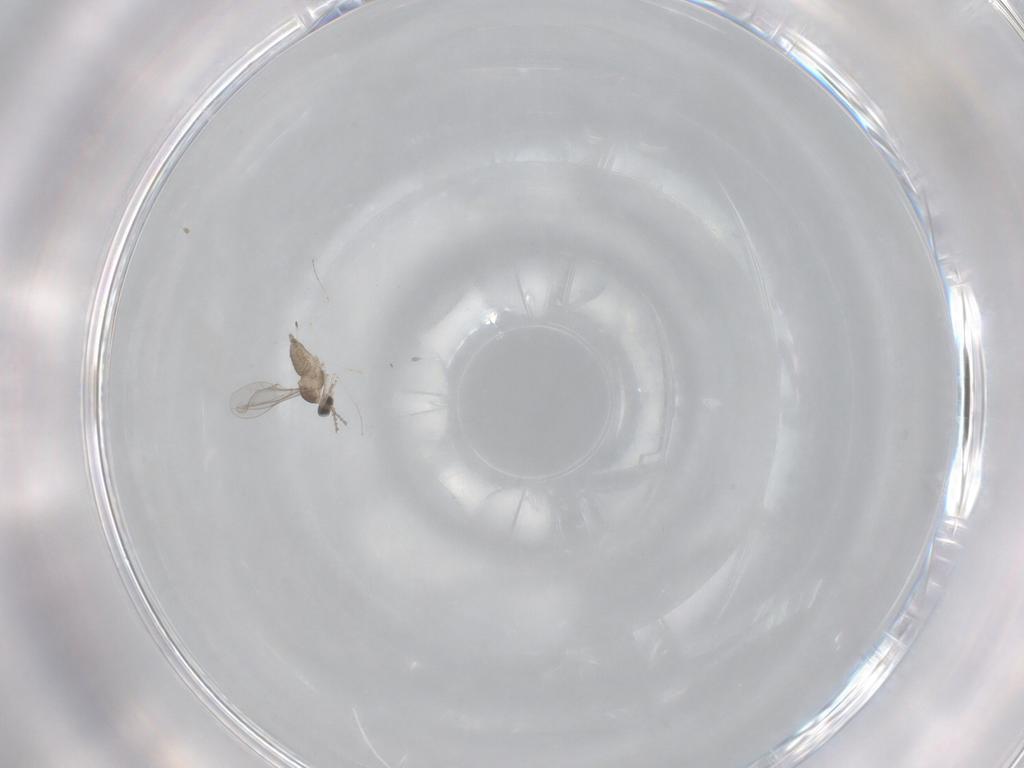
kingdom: Animalia
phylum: Arthropoda
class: Insecta
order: Diptera
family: Cecidomyiidae
